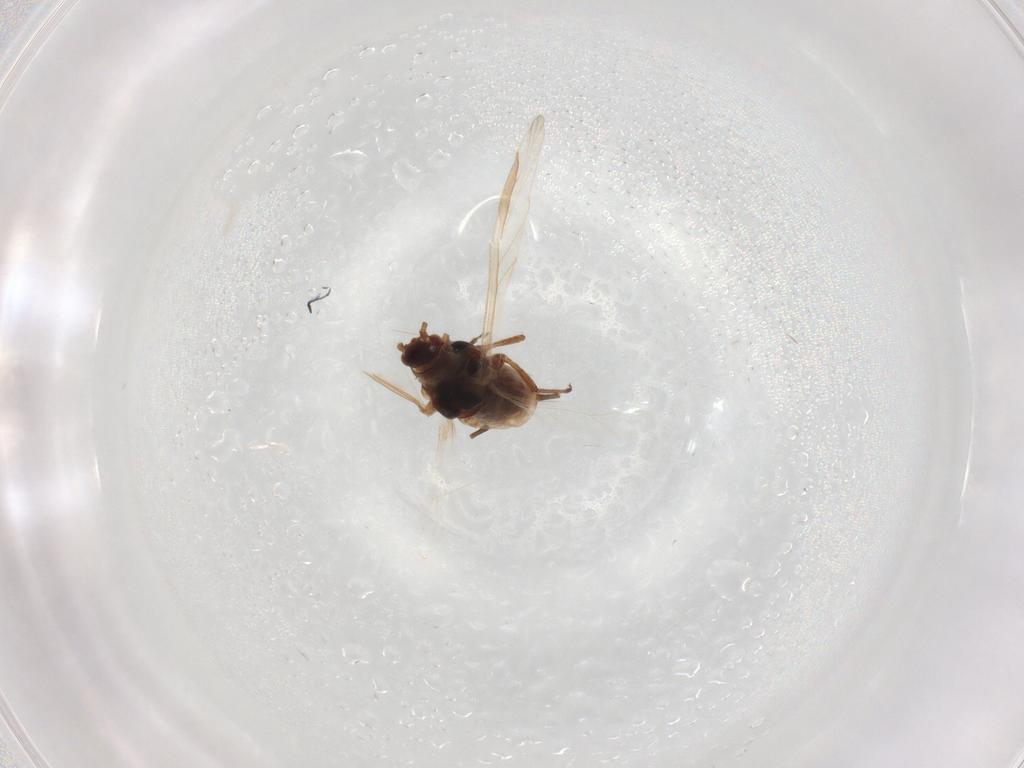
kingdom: Animalia
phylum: Arthropoda
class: Insecta
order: Hemiptera
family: Aphididae
